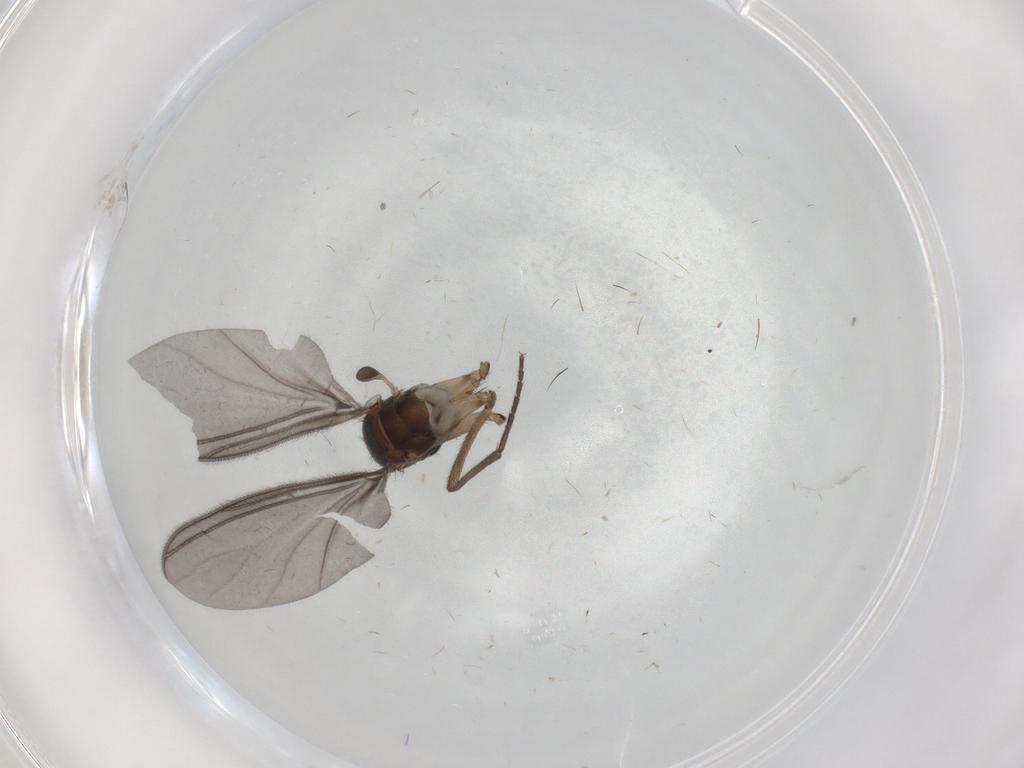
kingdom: Animalia
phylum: Arthropoda
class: Insecta
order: Diptera
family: Sciaridae
